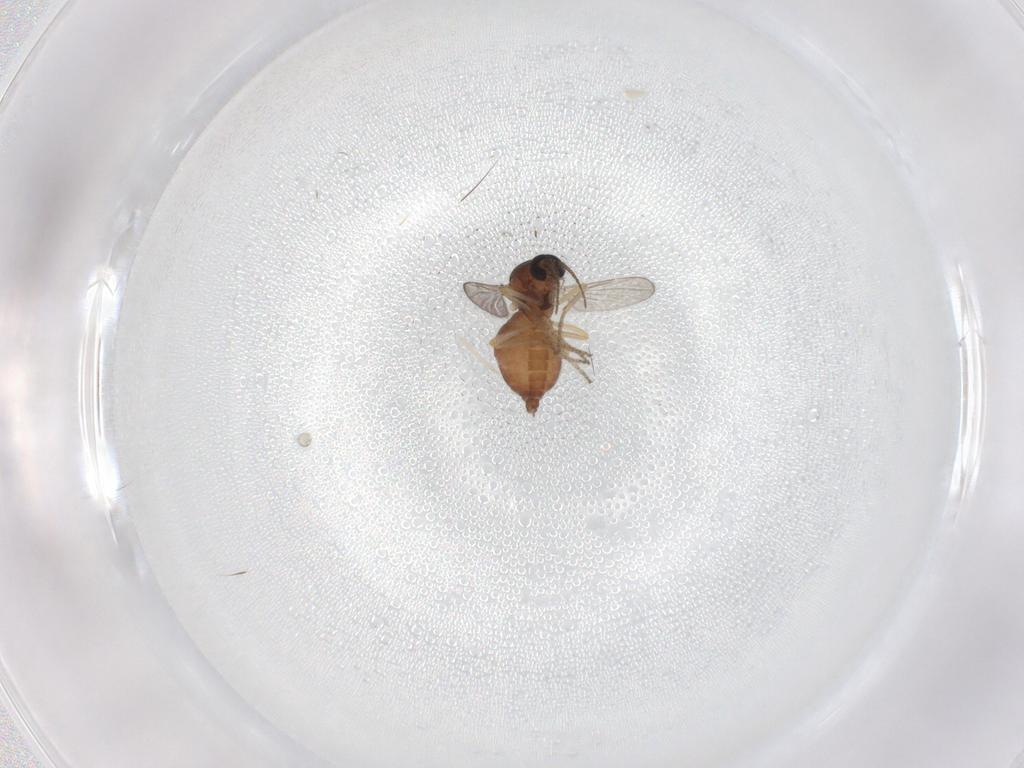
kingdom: Animalia
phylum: Arthropoda
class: Insecta
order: Diptera
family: Ceratopogonidae
